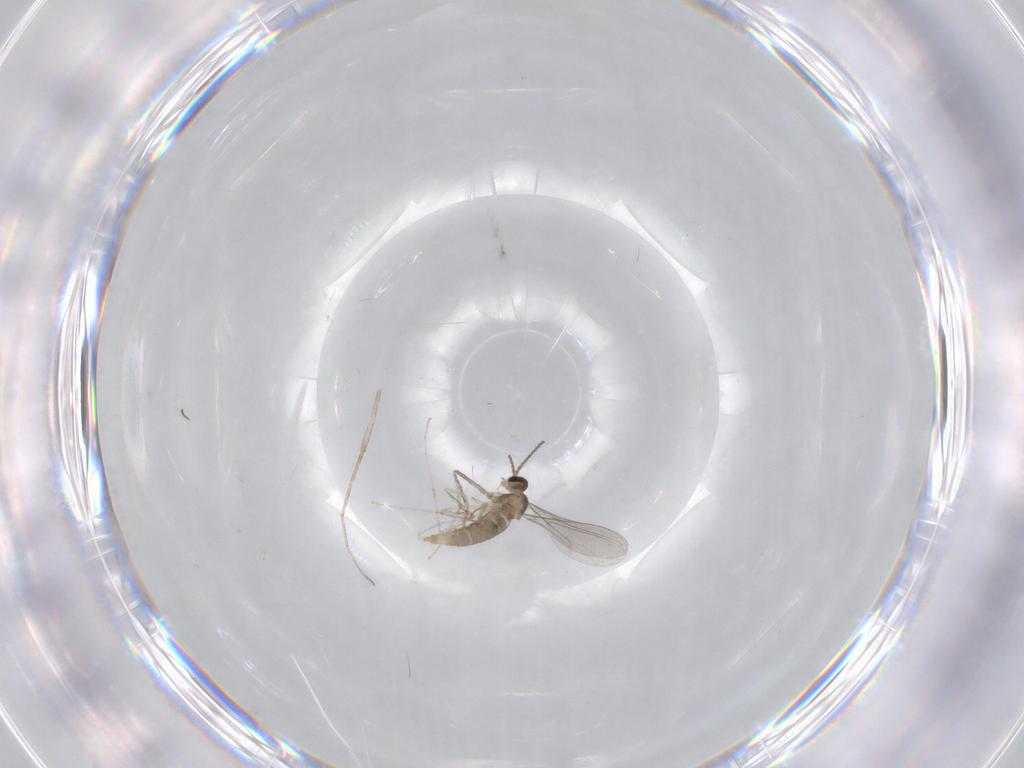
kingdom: Animalia
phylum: Arthropoda
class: Insecta
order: Diptera
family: Cecidomyiidae
